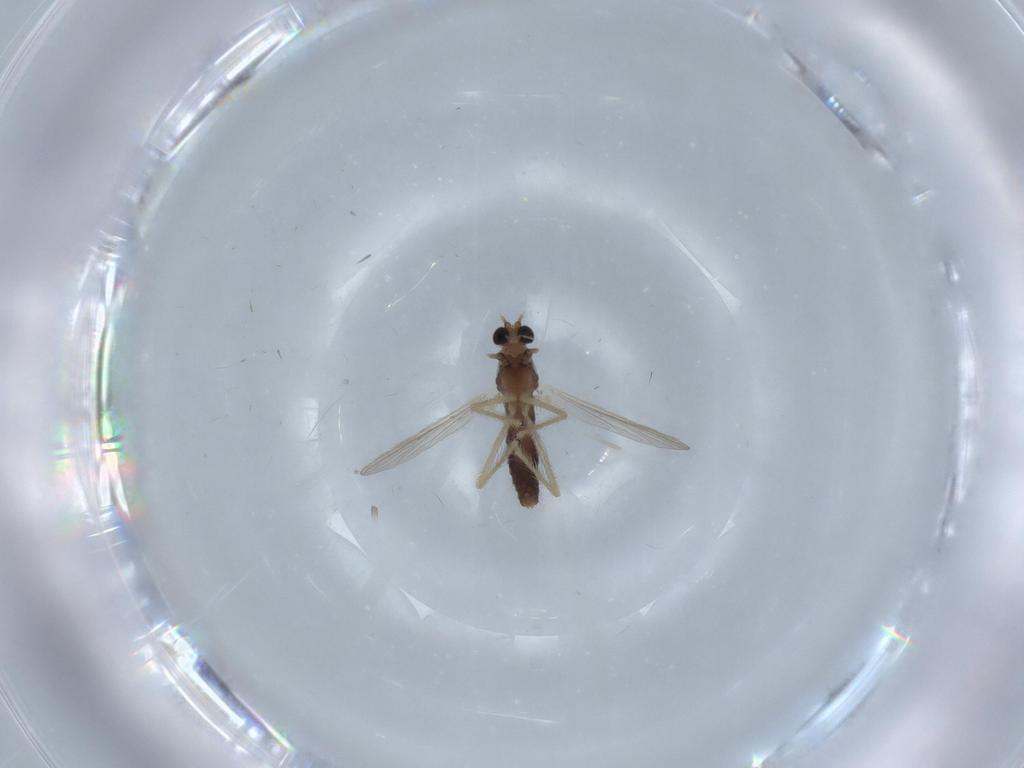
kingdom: Animalia
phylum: Arthropoda
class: Insecta
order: Diptera
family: Chironomidae
